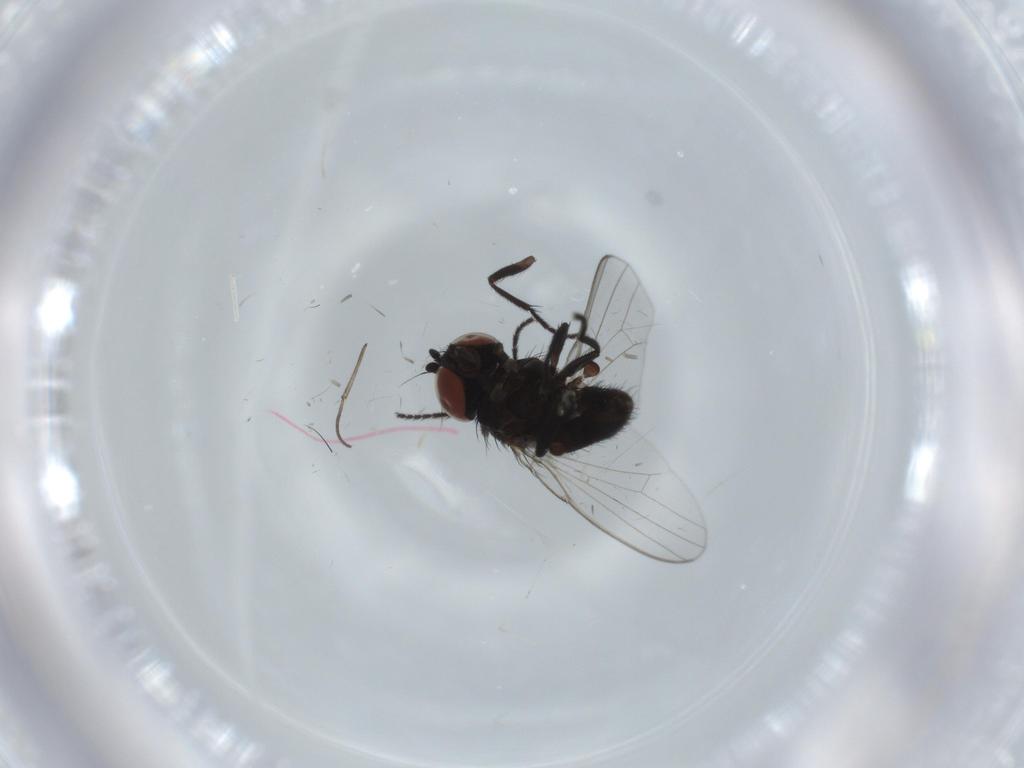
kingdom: Animalia
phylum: Arthropoda
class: Insecta
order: Diptera
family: Milichiidae
